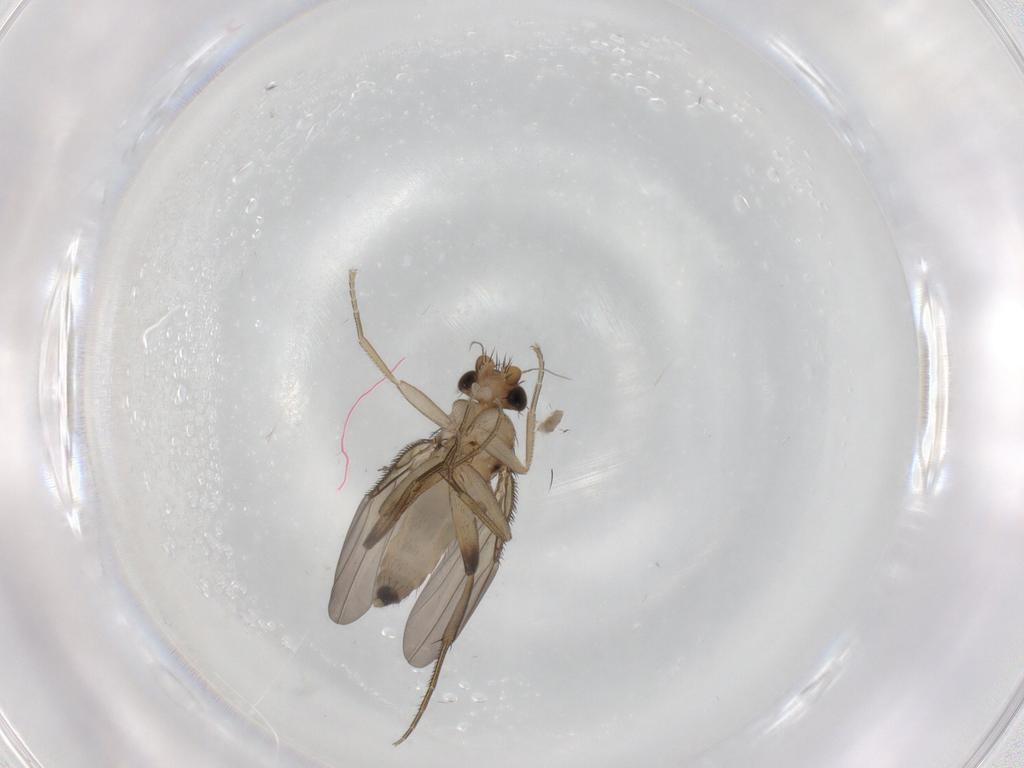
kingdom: Animalia
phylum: Arthropoda
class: Insecta
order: Diptera
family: Phoridae
